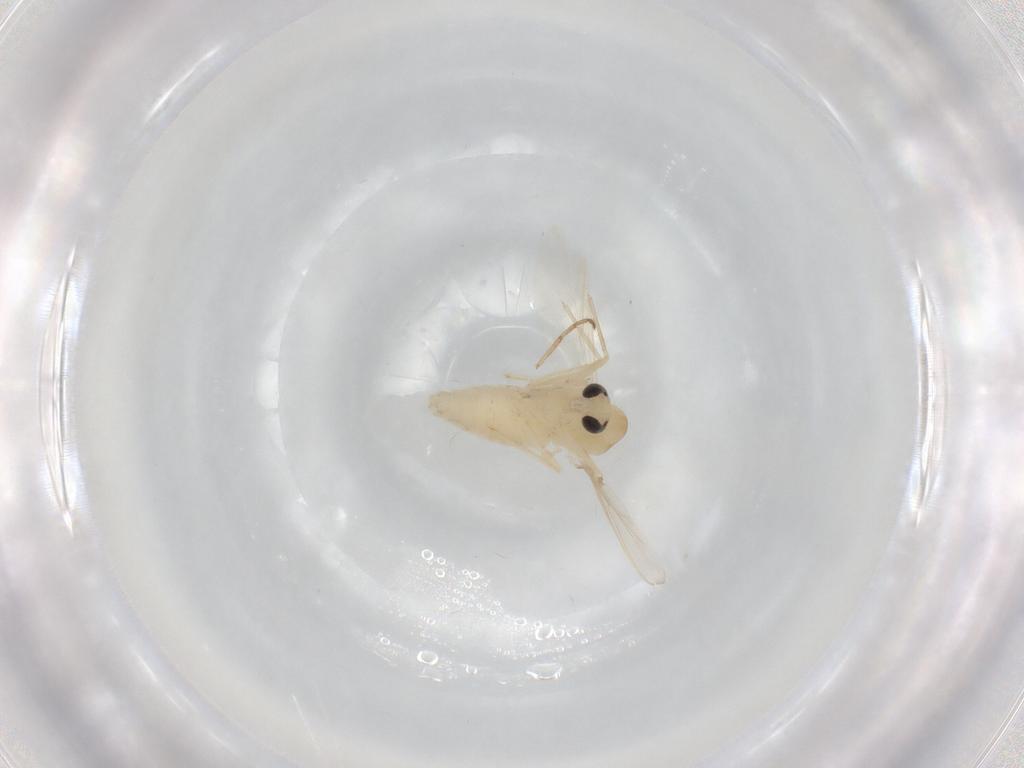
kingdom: Animalia
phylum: Arthropoda
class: Insecta
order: Diptera
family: Chironomidae
